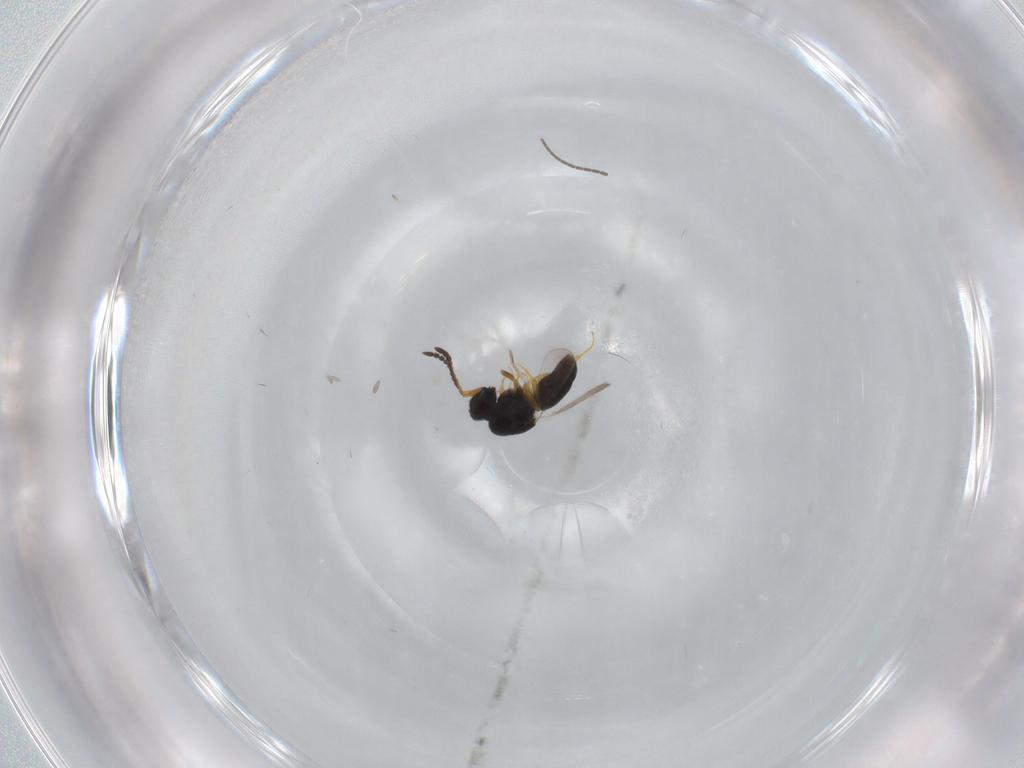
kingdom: Animalia
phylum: Arthropoda
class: Insecta
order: Hymenoptera
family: Ceraphronidae
